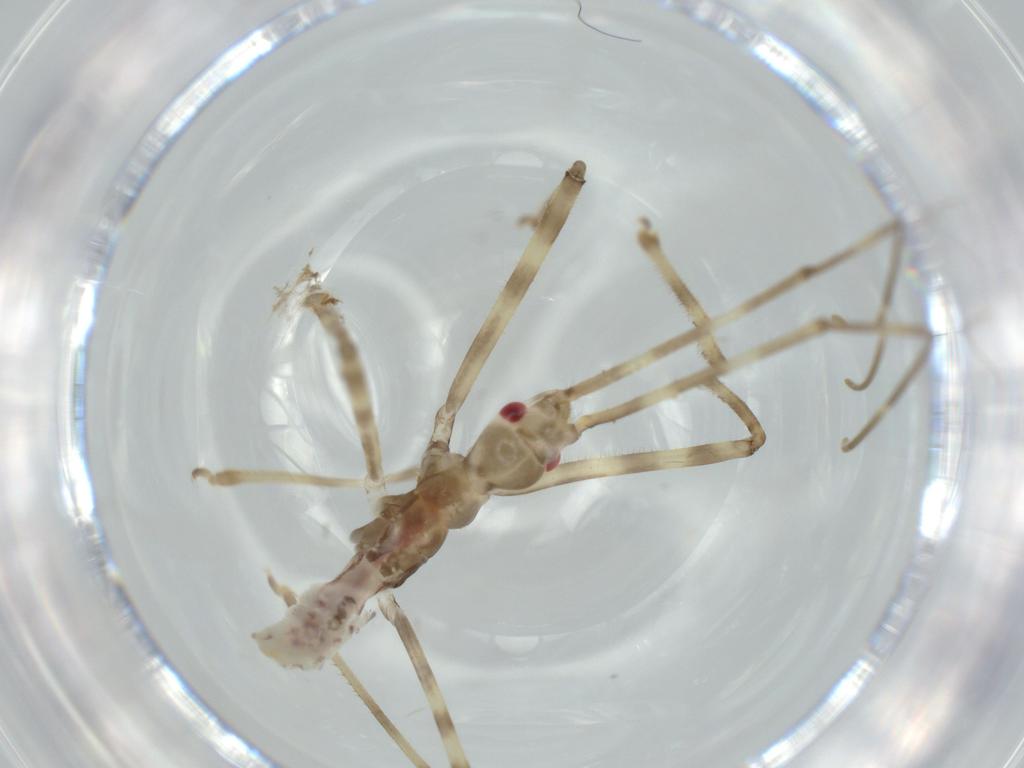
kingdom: Animalia
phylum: Arthropoda
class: Insecta
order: Hemiptera
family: Reduviidae
